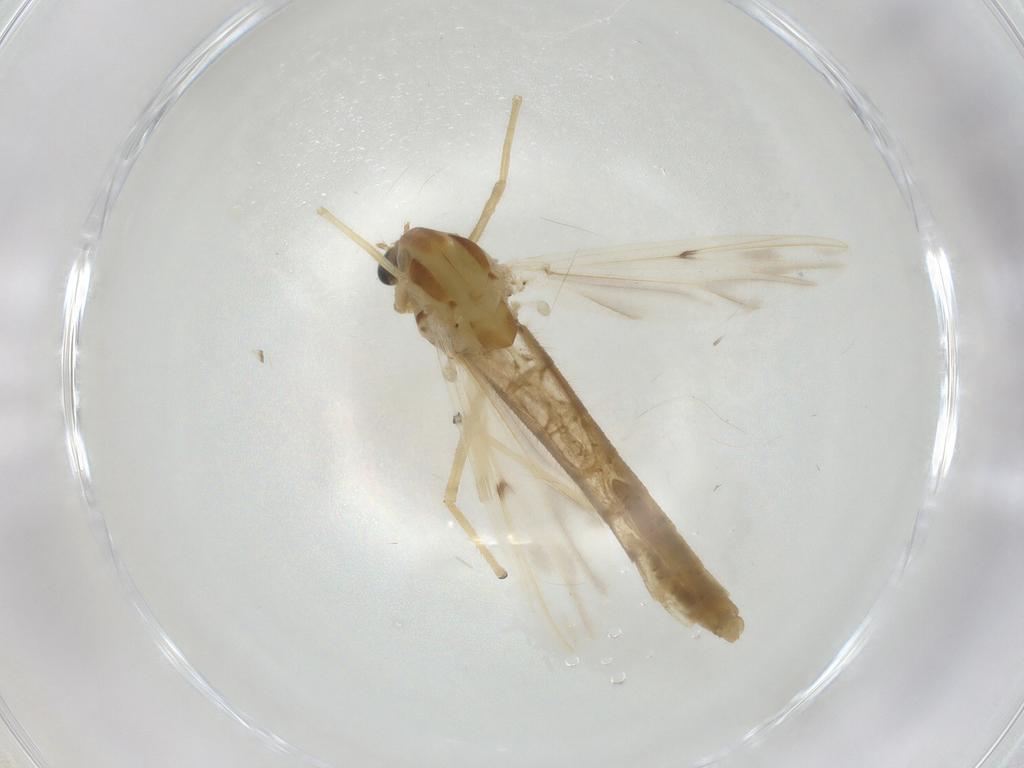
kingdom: Animalia
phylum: Arthropoda
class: Insecta
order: Diptera
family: Chironomidae
